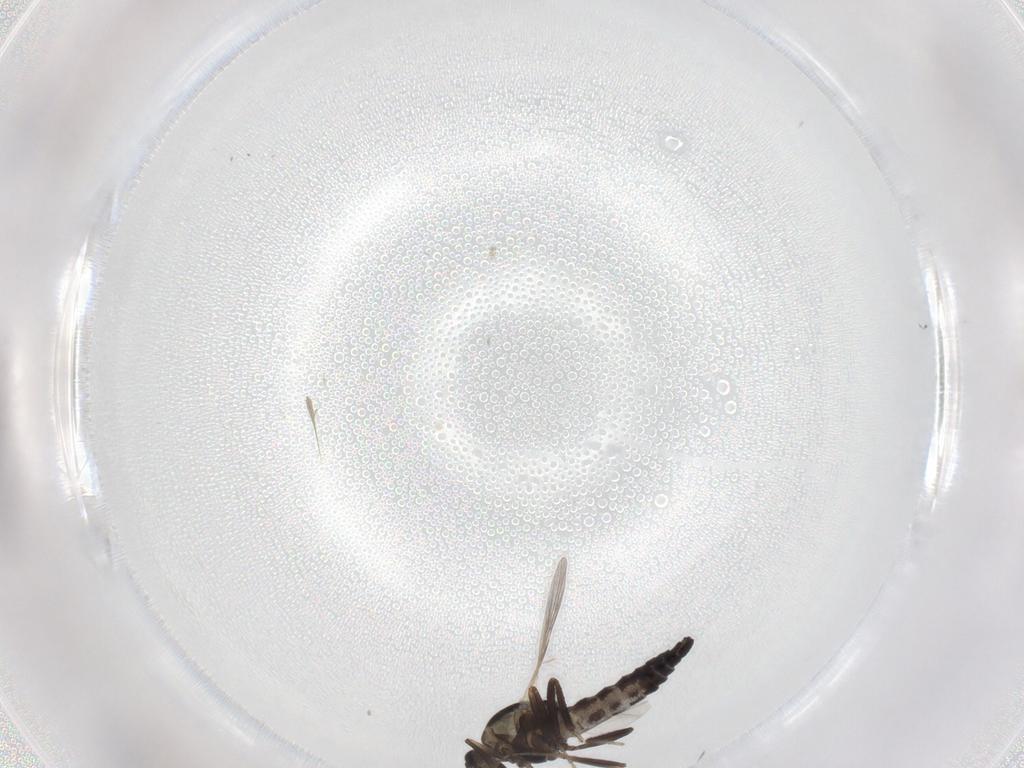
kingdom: Animalia
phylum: Arthropoda
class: Insecta
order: Diptera
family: Ceratopogonidae
